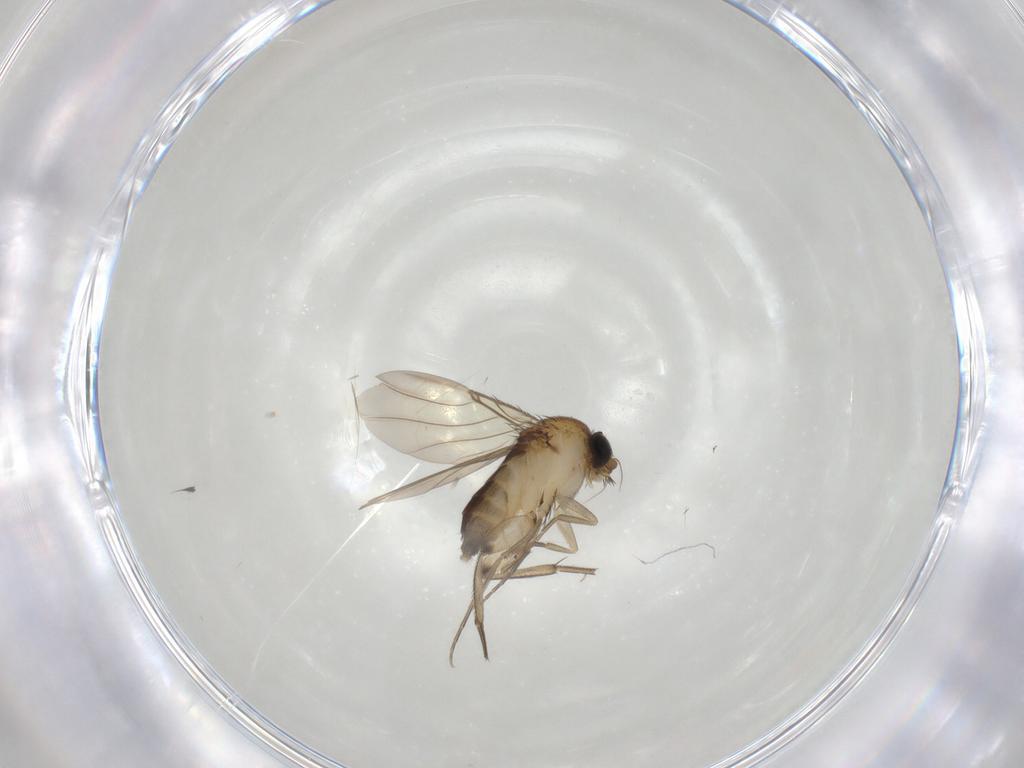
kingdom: Animalia
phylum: Arthropoda
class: Insecta
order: Diptera
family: Phoridae
